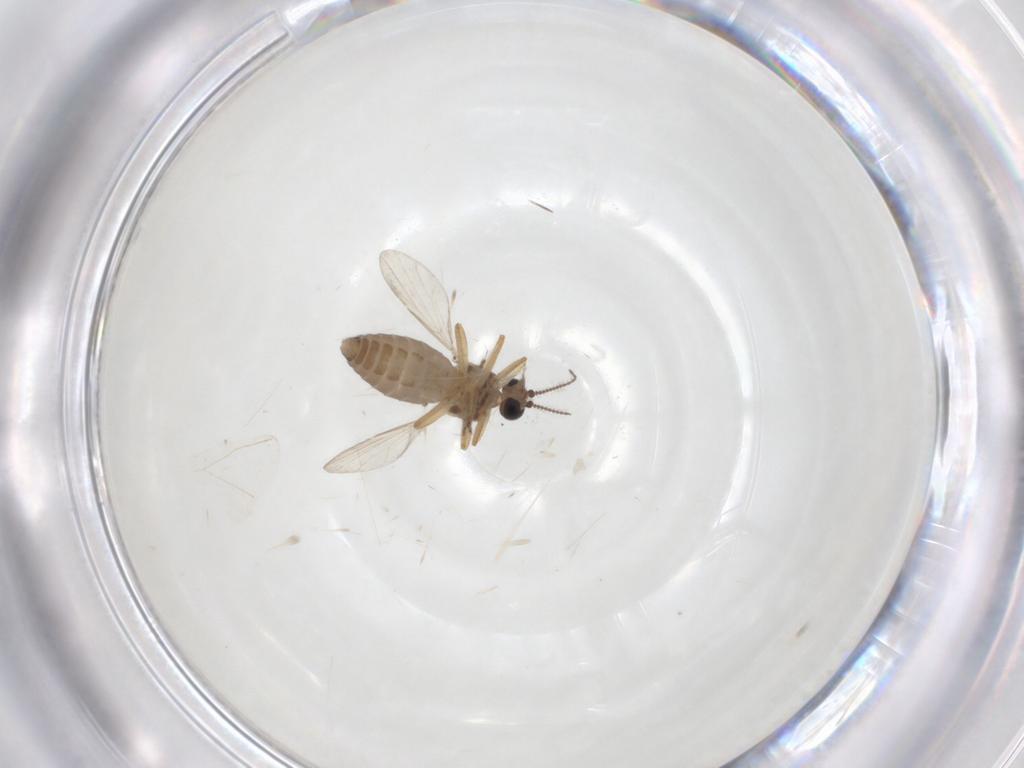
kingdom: Animalia
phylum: Arthropoda
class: Insecta
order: Diptera
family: Ceratopogonidae
